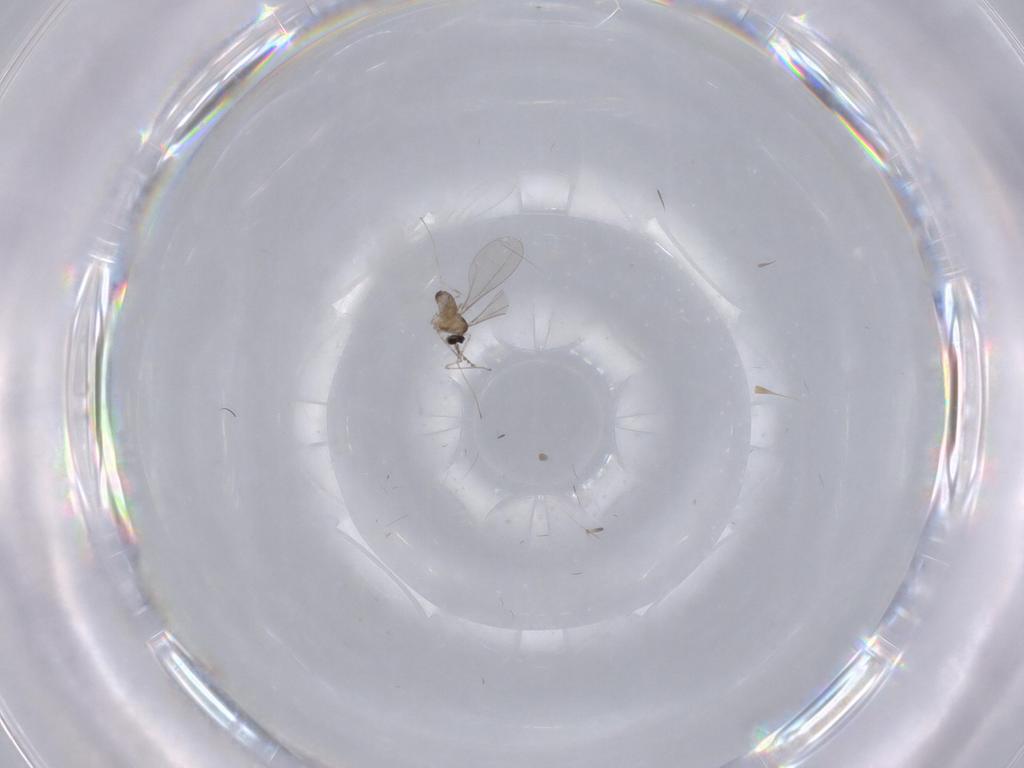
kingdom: Animalia
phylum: Arthropoda
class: Insecta
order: Diptera
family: Cecidomyiidae
